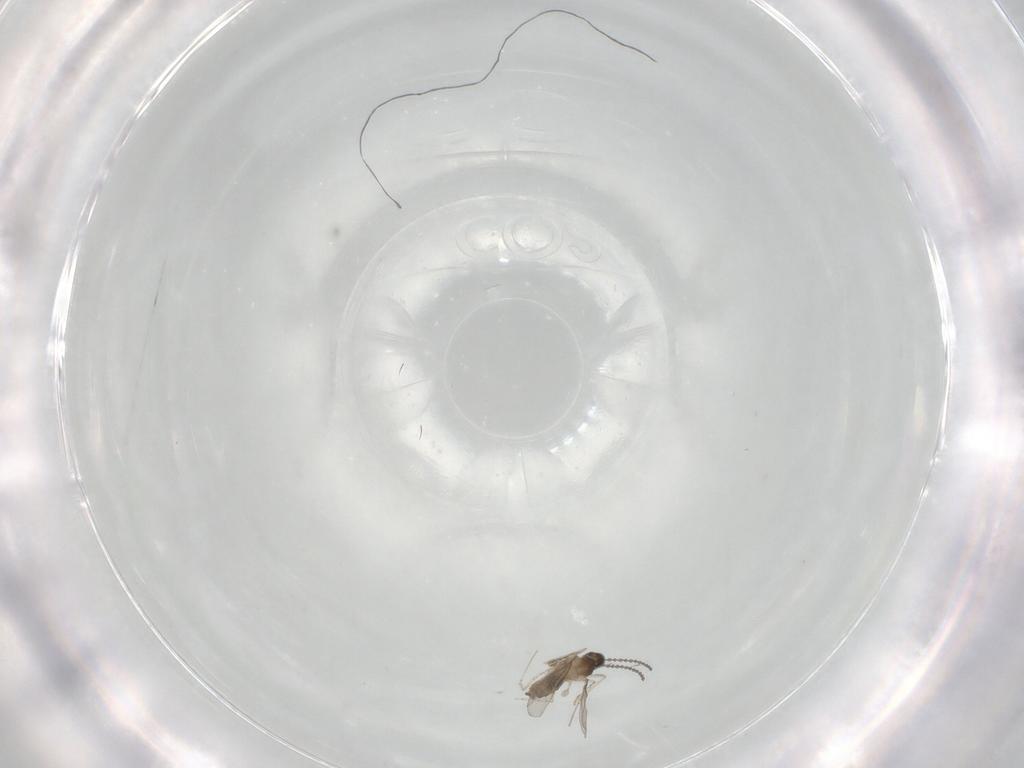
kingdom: Animalia
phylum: Arthropoda
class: Insecta
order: Diptera
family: Cecidomyiidae
